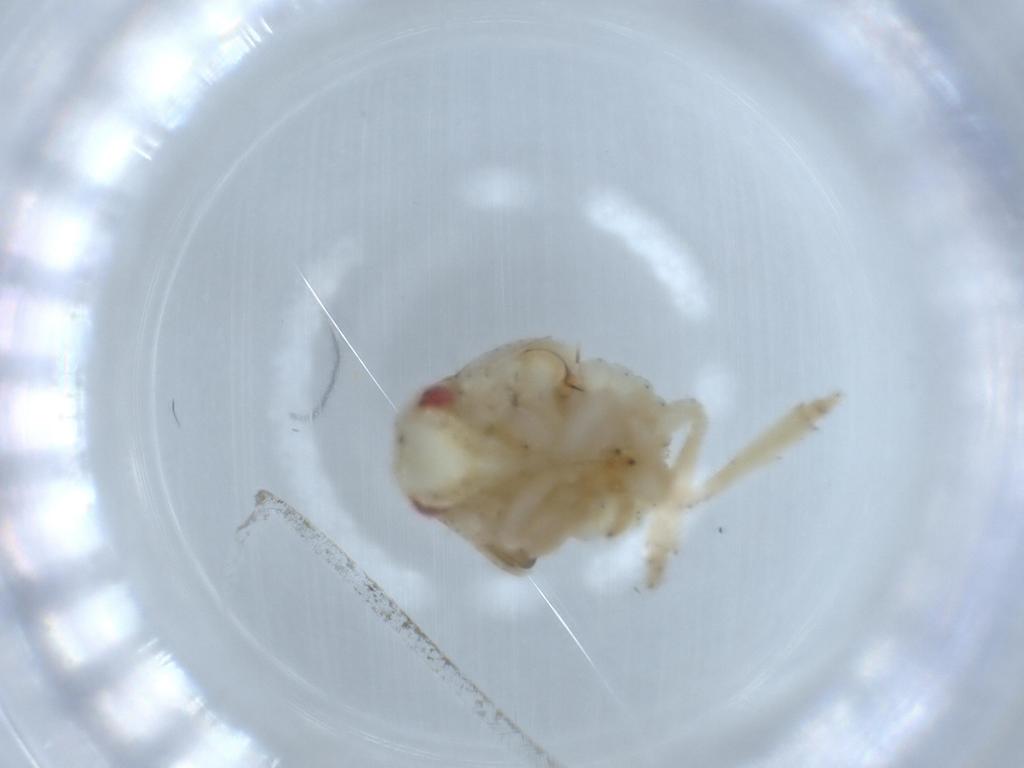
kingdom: Animalia
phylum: Arthropoda
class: Insecta
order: Hemiptera
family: Acanaloniidae
